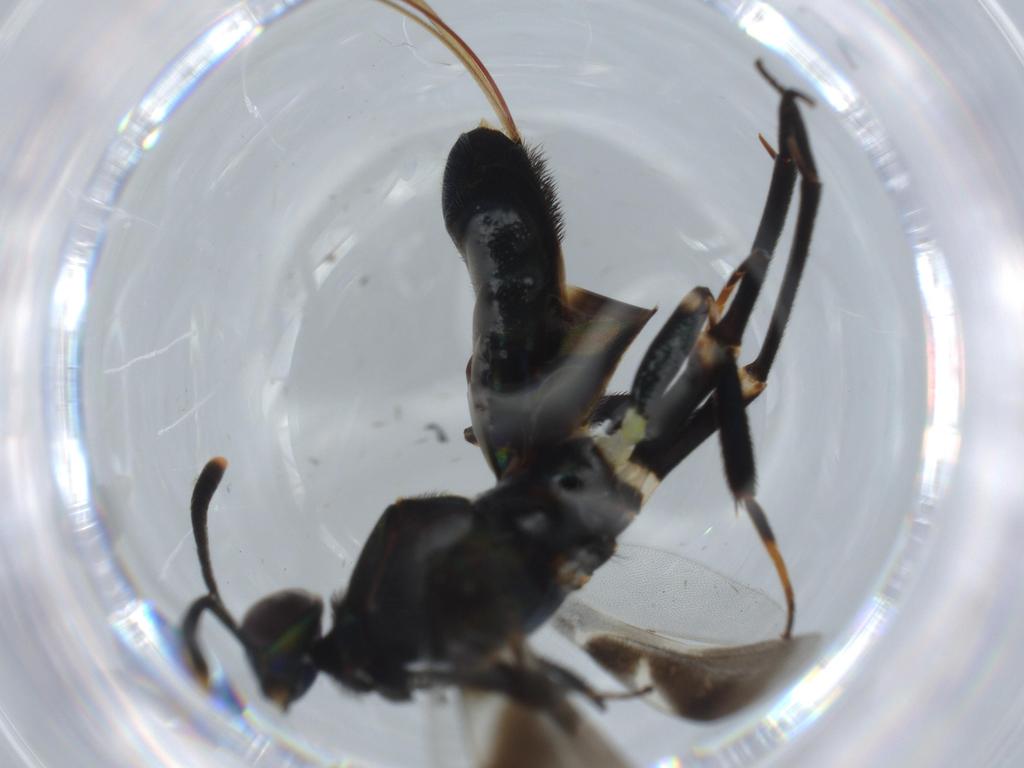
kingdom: Animalia
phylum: Arthropoda
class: Insecta
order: Hymenoptera
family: Diapriidae
